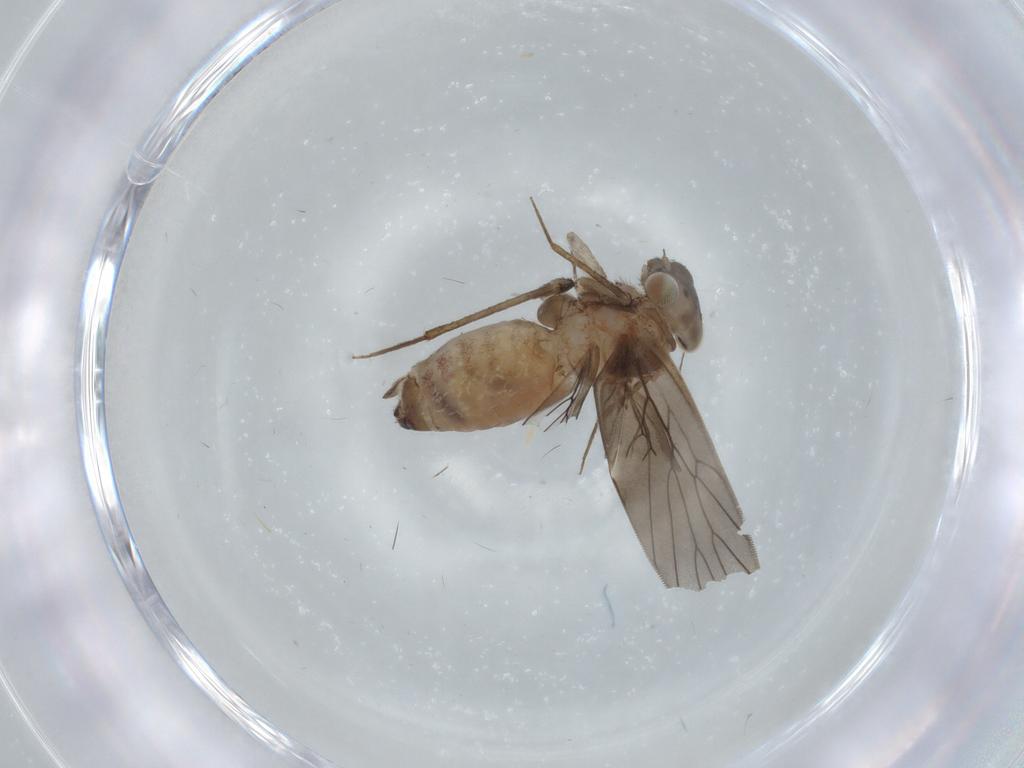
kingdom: Animalia
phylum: Arthropoda
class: Insecta
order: Psocodea
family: Lepidopsocidae
